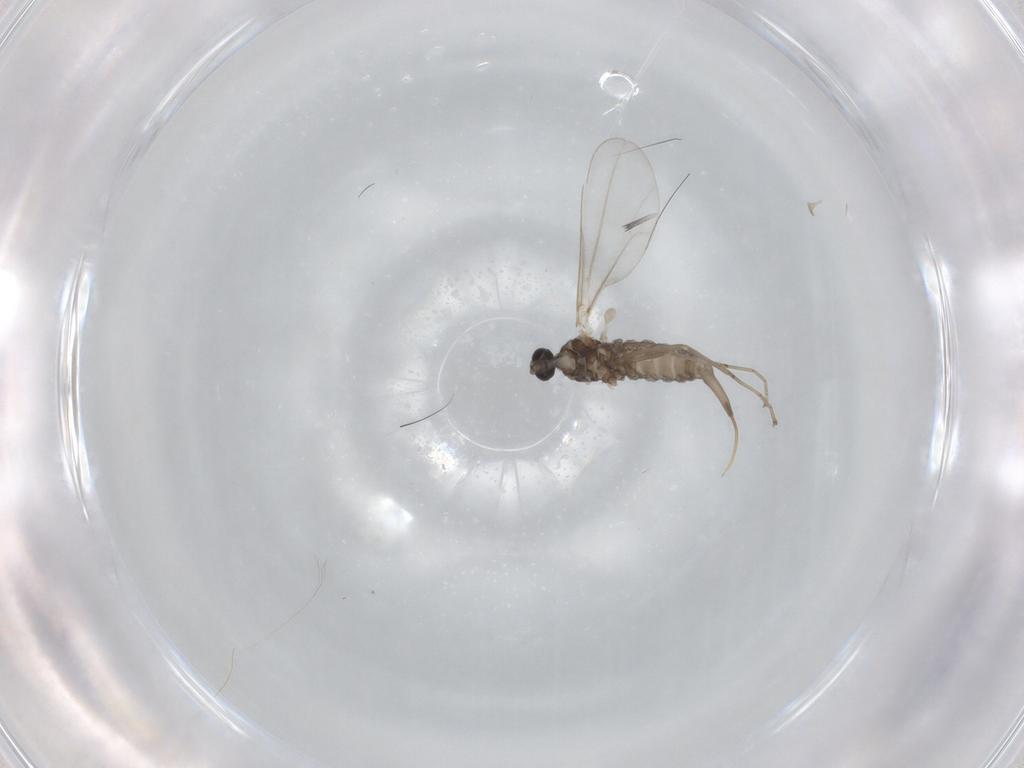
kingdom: Animalia
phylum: Arthropoda
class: Insecta
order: Diptera
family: Cecidomyiidae
